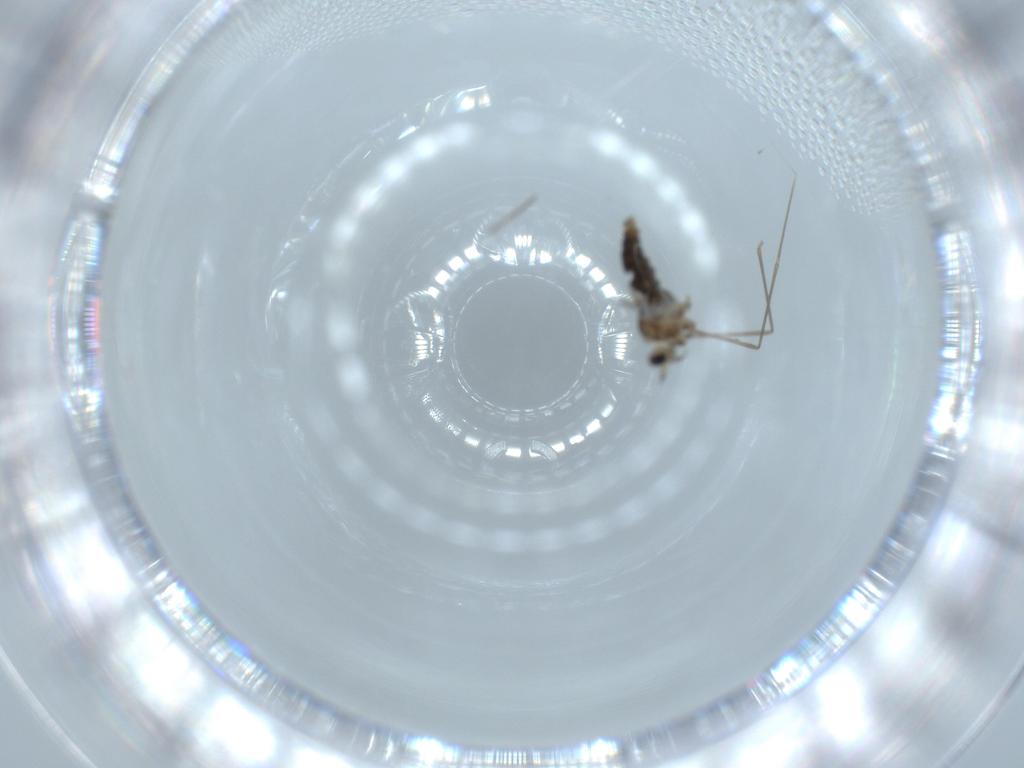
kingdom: Animalia
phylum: Arthropoda
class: Insecta
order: Diptera
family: Cecidomyiidae
